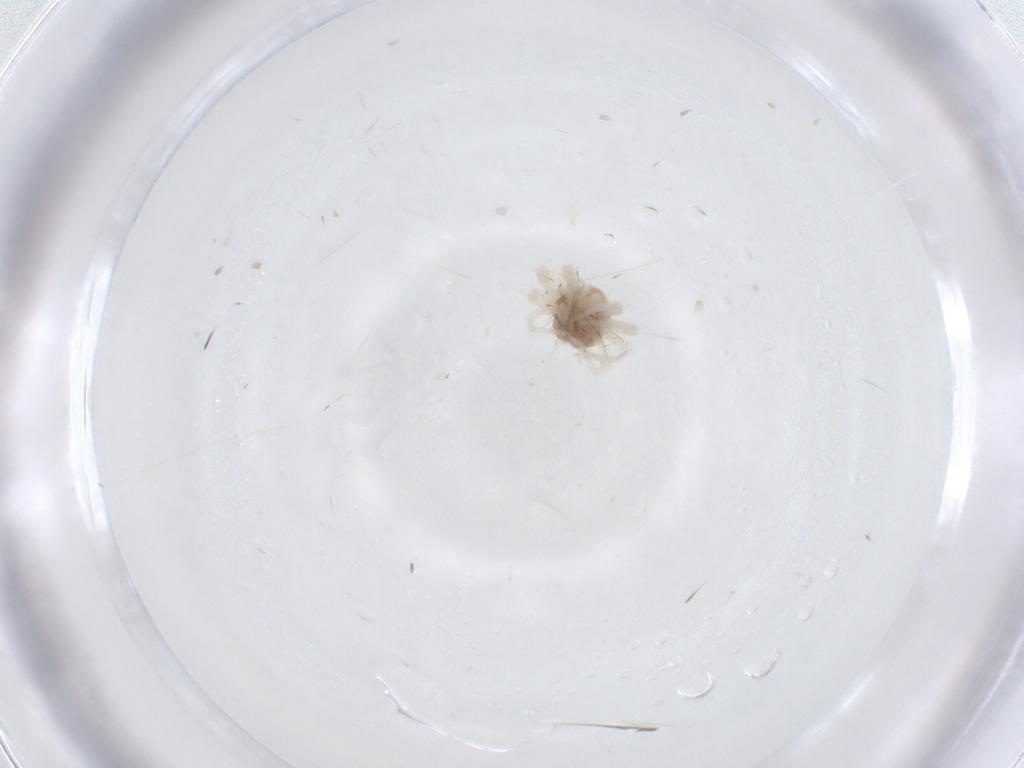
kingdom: Animalia
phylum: Arthropoda
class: Arachnida
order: Trombidiformes
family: Anystidae
